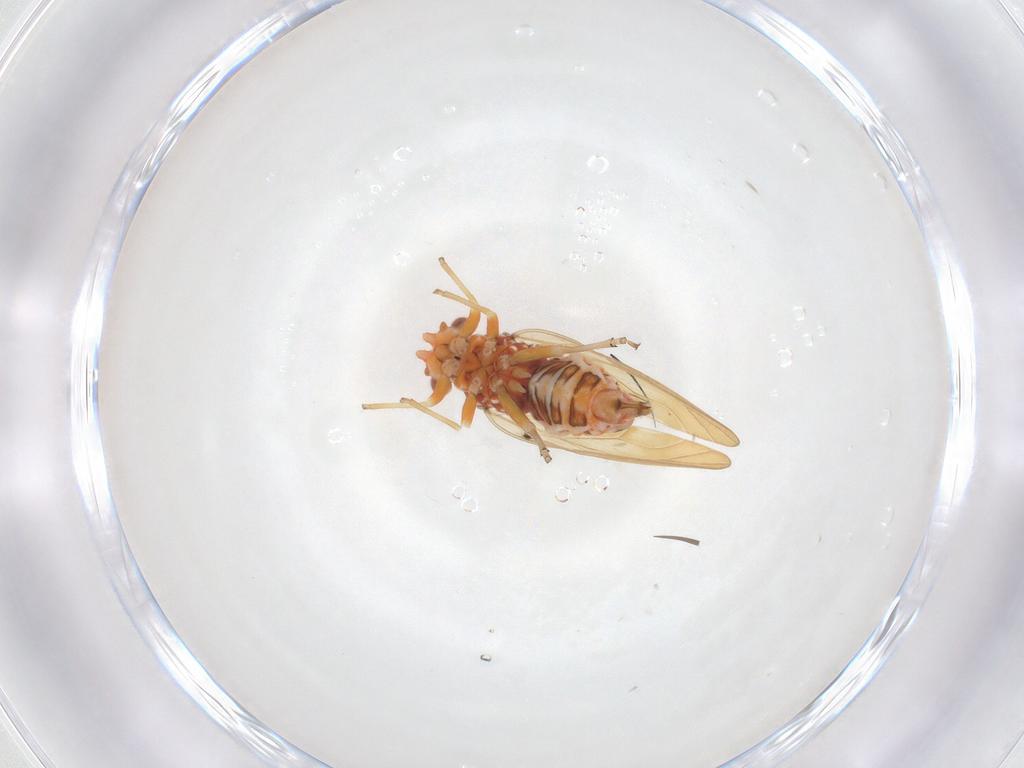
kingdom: Animalia
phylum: Arthropoda
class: Insecta
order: Hemiptera
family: Psyllidae
